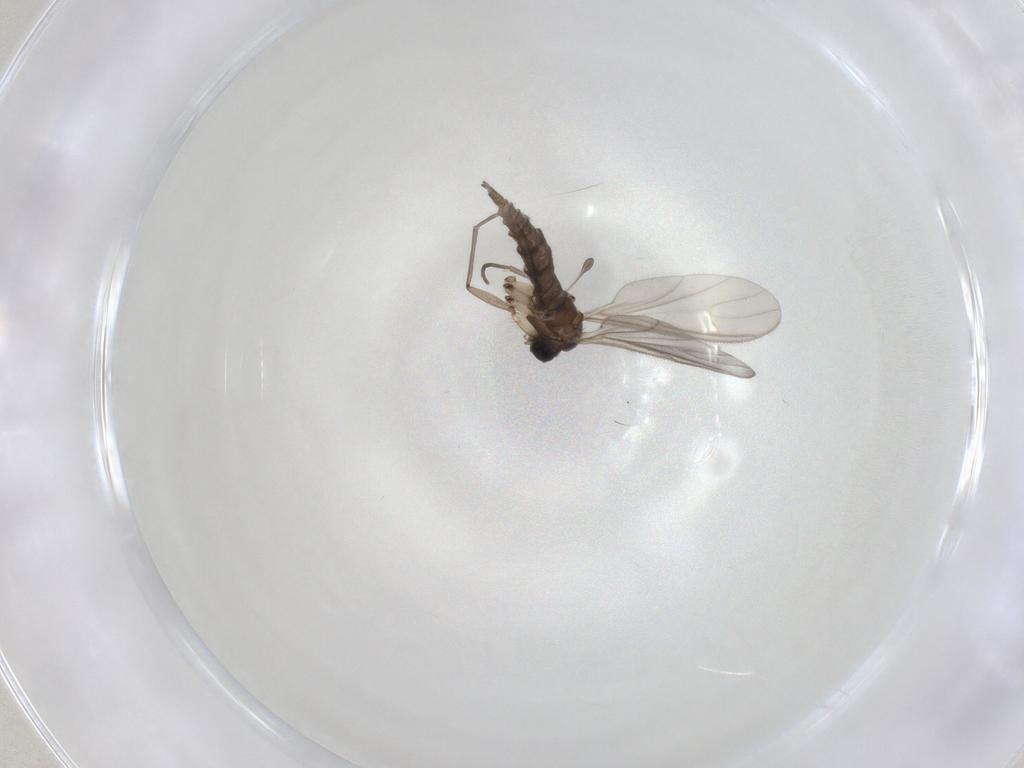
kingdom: Animalia
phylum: Arthropoda
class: Insecta
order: Diptera
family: Sciaridae
